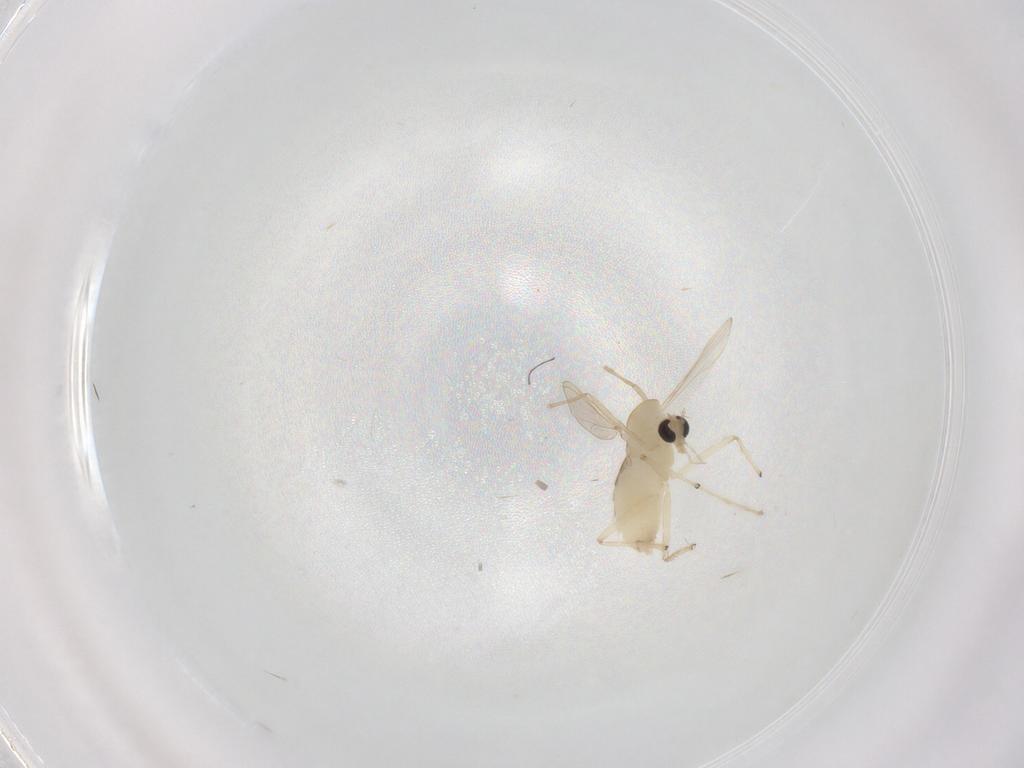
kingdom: Animalia
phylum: Arthropoda
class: Insecta
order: Diptera
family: Chironomidae
